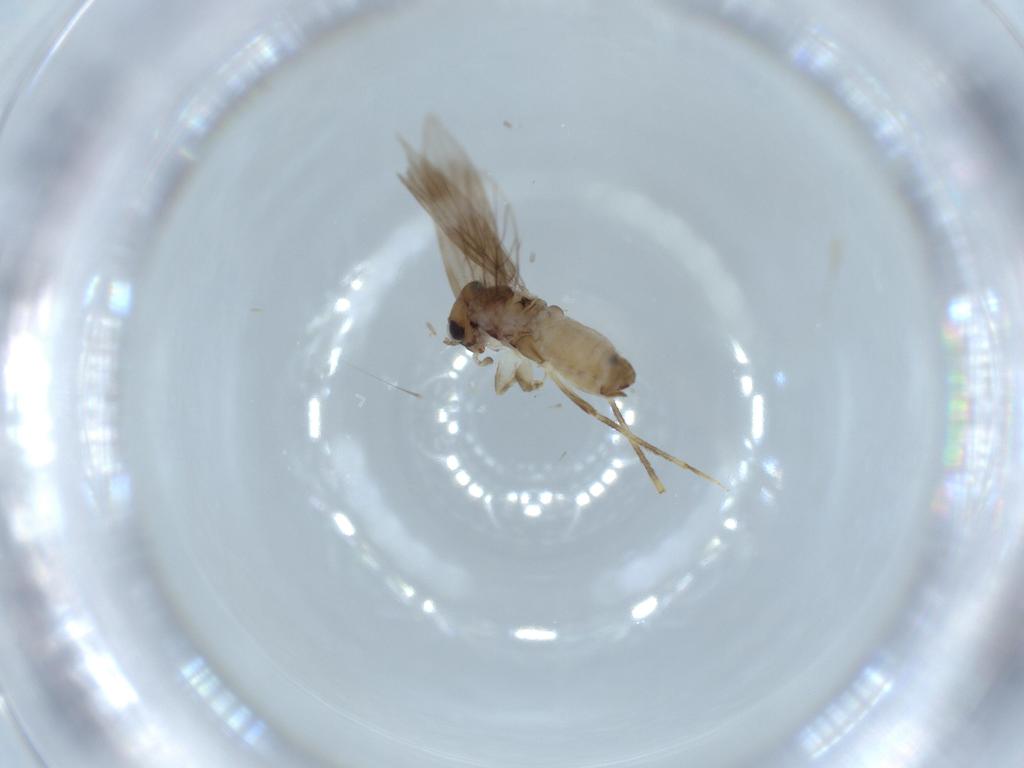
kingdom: Animalia
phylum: Arthropoda
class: Insecta
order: Psocodea
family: Lepidopsocidae
